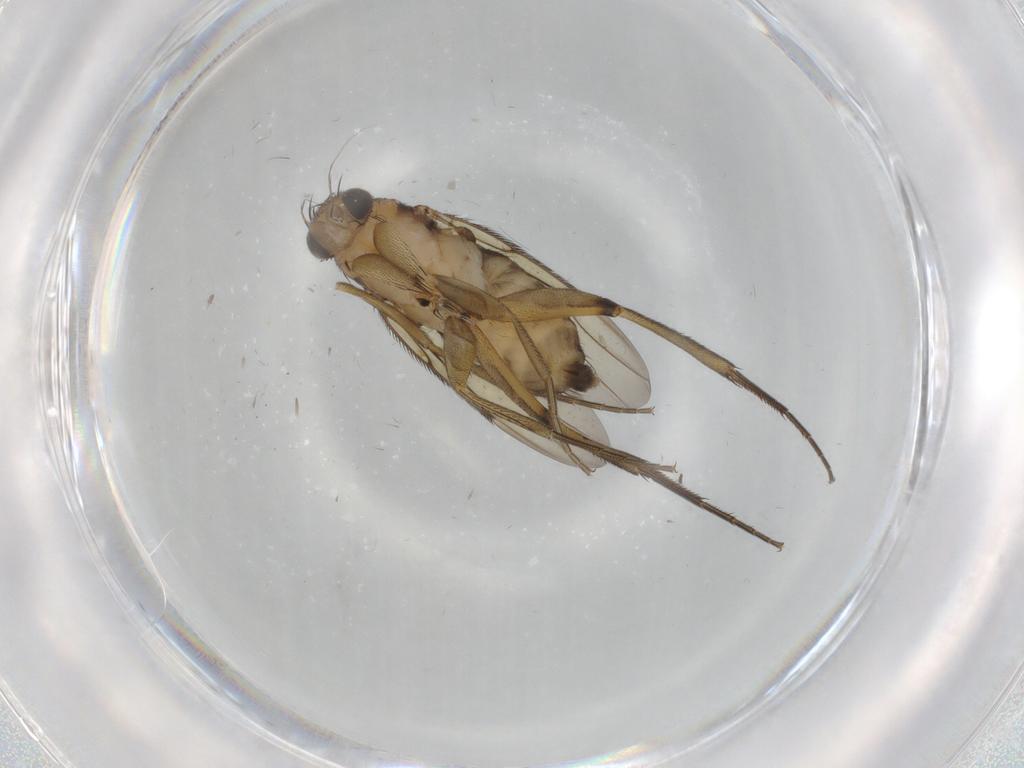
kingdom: Animalia
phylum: Arthropoda
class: Insecta
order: Diptera
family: Phoridae
